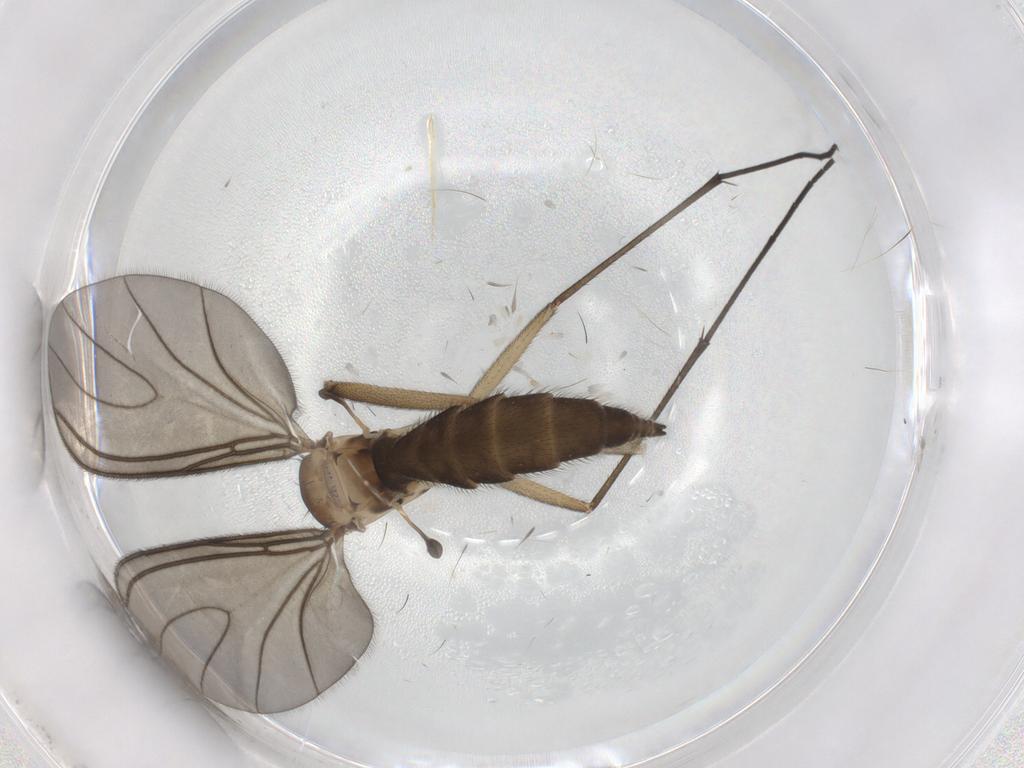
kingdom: Animalia
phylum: Arthropoda
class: Insecta
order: Diptera
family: Sciaridae
